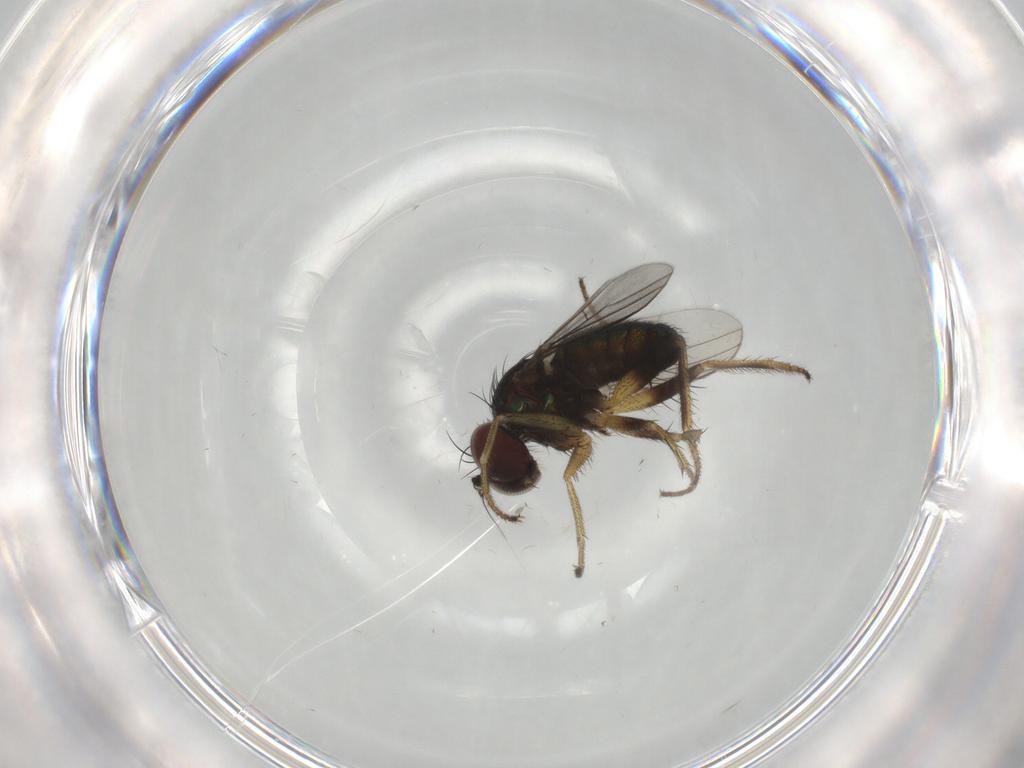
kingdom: Animalia
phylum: Arthropoda
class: Insecta
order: Diptera
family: Dolichopodidae
